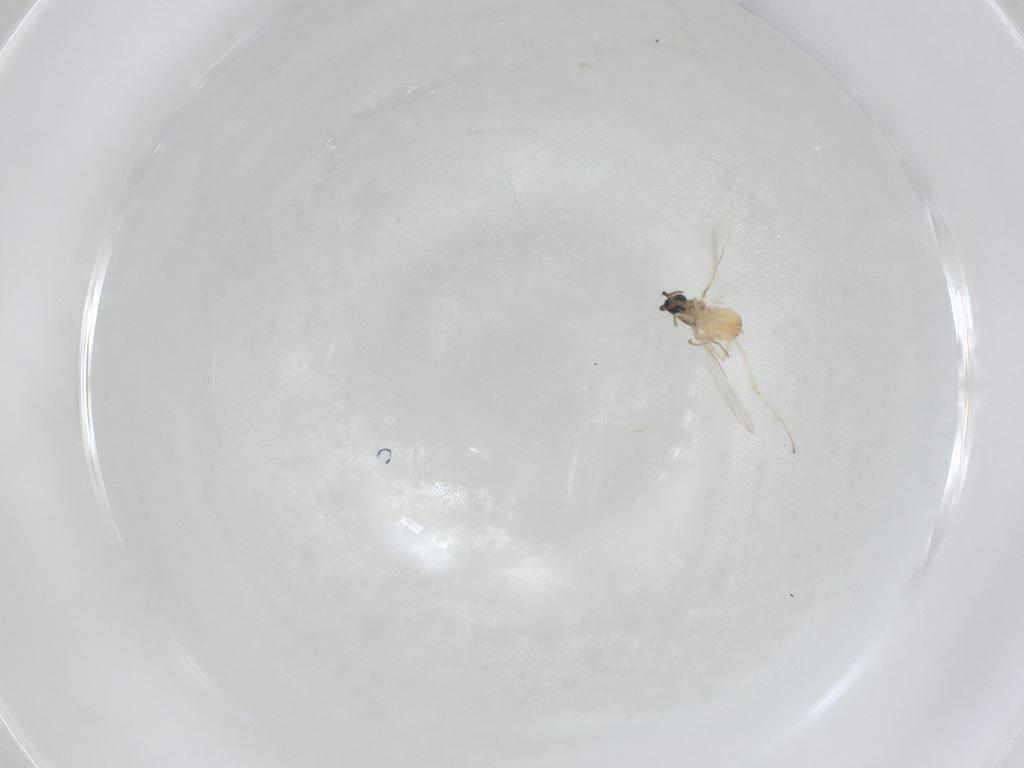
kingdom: Animalia
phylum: Arthropoda
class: Insecta
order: Diptera
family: Cecidomyiidae
